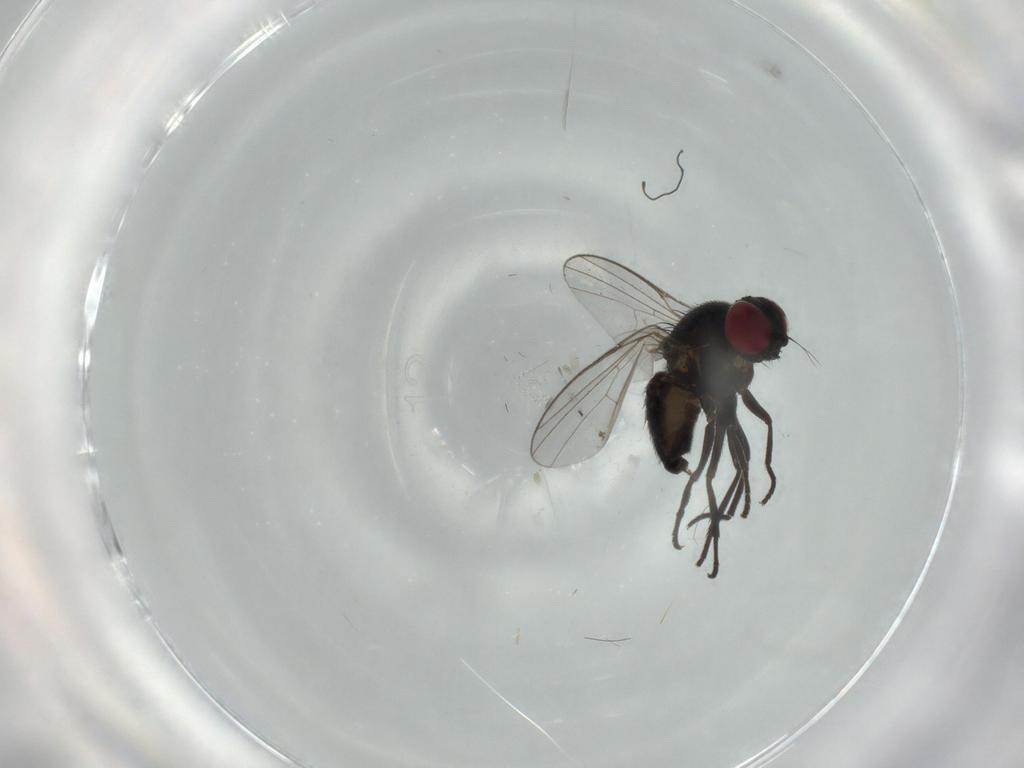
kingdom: Animalia
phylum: Arthropoda
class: Insecta
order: Diptera
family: Agromyzidae
